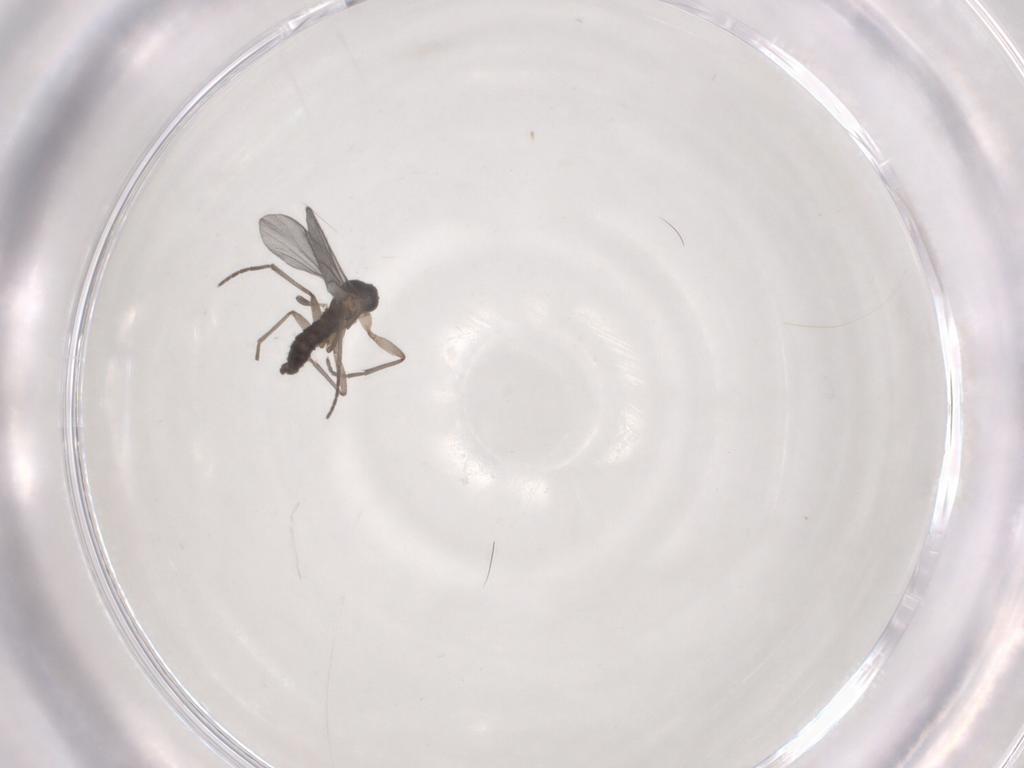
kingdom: Animalia
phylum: Arthropoda
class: Insecta
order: Diptera
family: Sciaridae
